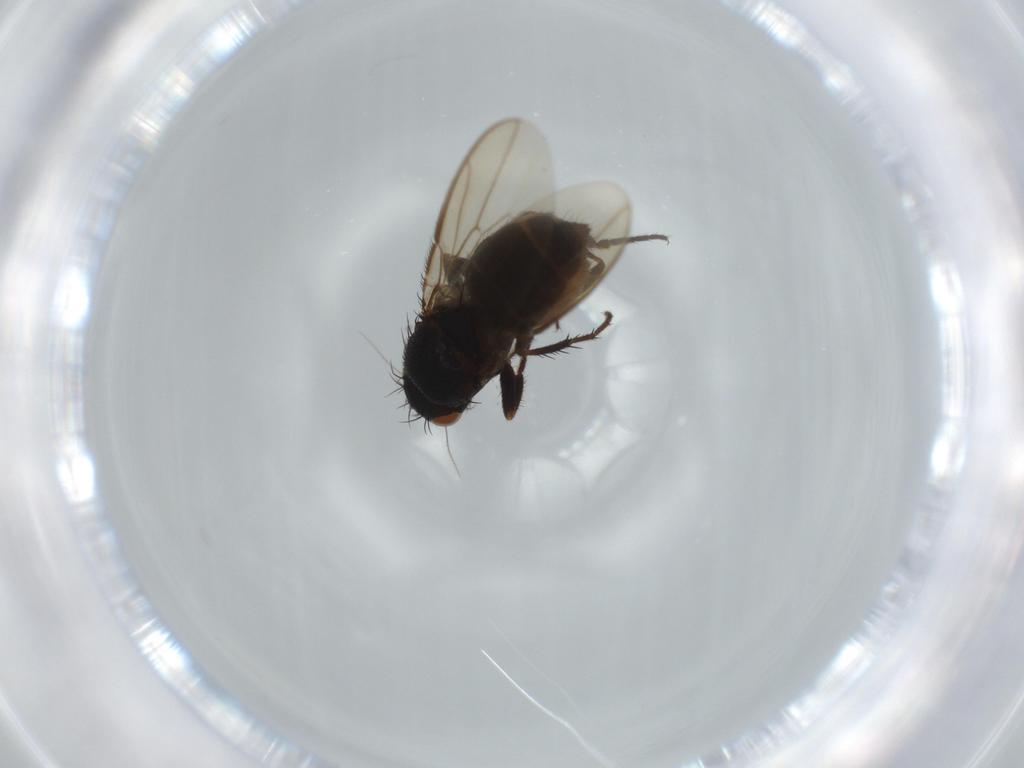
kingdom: Animalia
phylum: Arthropoda
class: Insecta
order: Diptera
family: Sphaeroceridae
